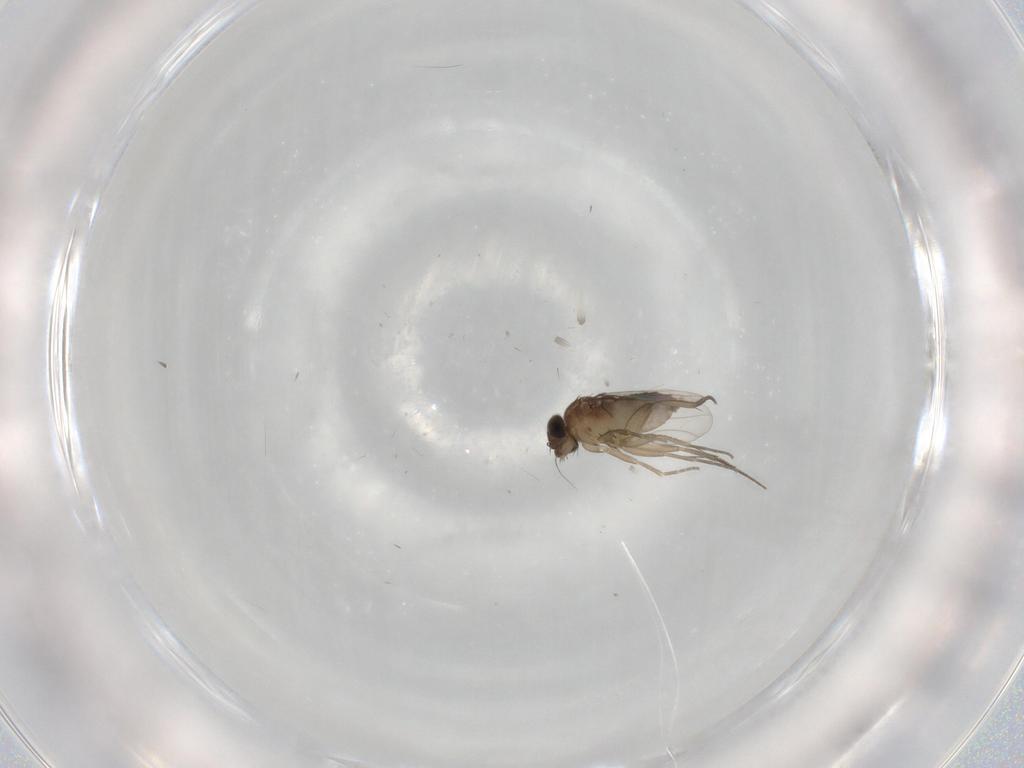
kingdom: Animalia
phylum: Arthropoda
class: Insecta
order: Diptera
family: Phoridae
